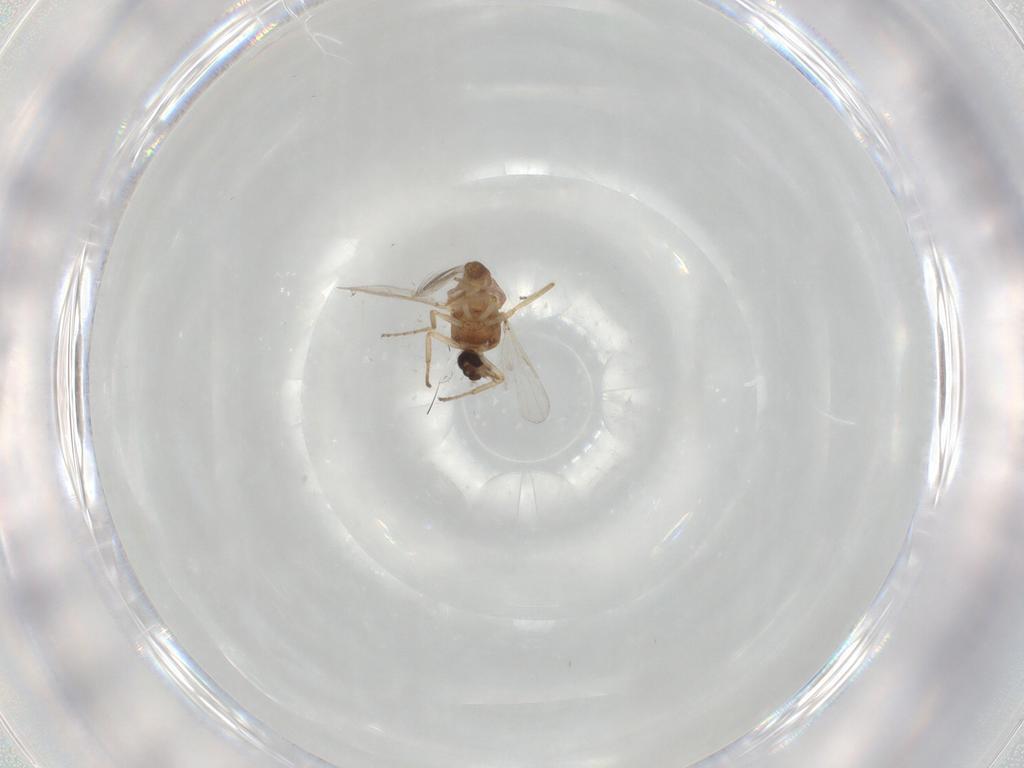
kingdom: Animalia
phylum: Arthropoda
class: Insecta
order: Diptera
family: Ceratopogonidae
